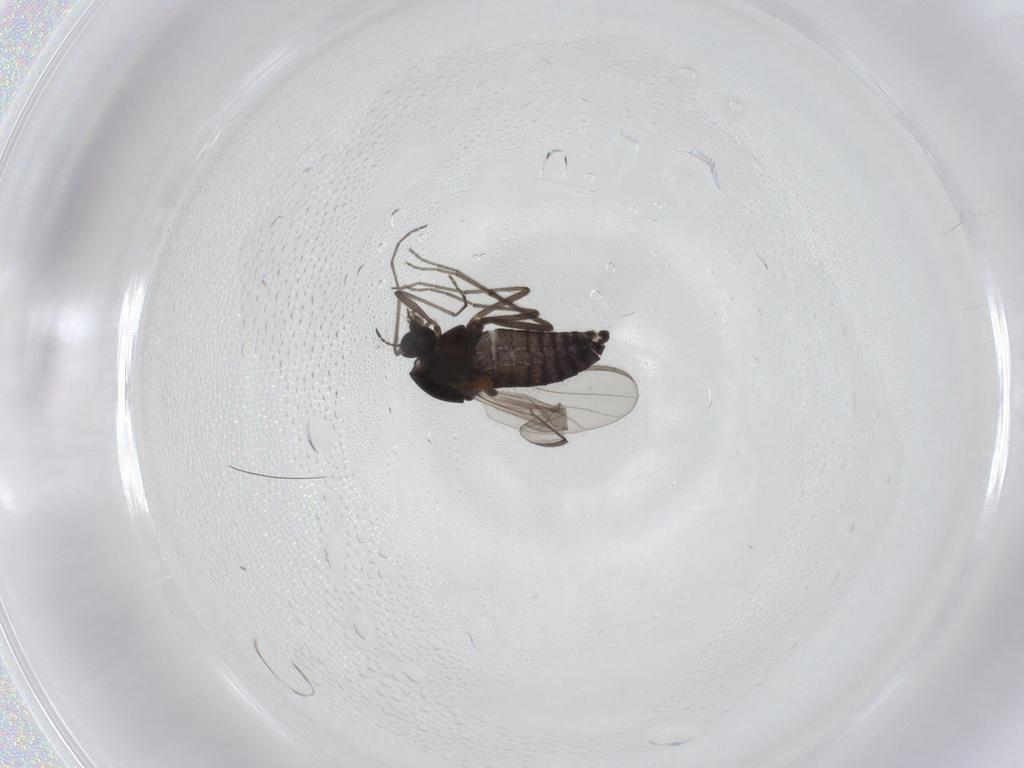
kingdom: Animalia
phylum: Arthropoda
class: Insecta
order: Diptera
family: Chironomidae
